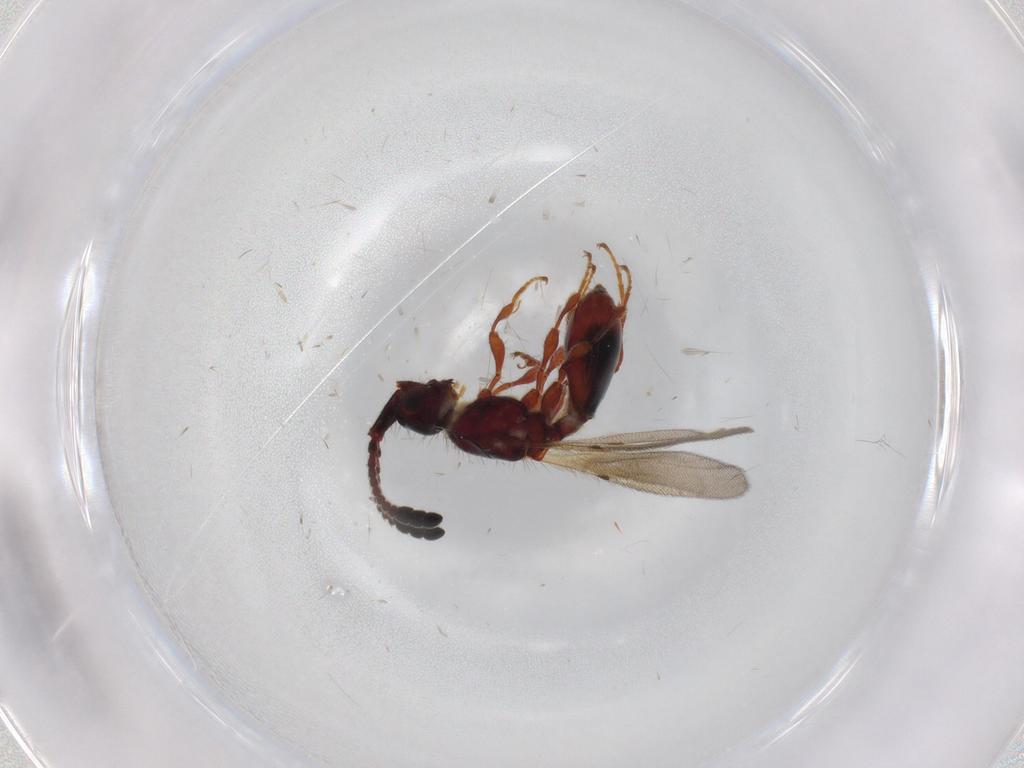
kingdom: Animalia
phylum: Arthropoda
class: Insecta
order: Hymenoptera
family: Diapriidae
